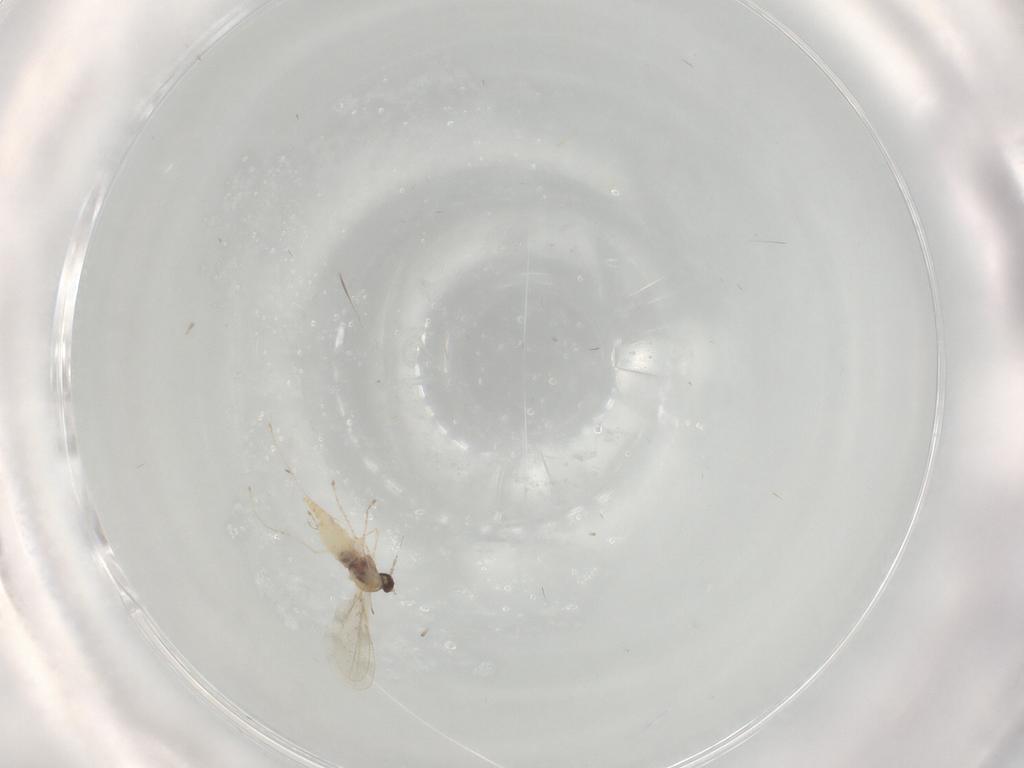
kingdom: Animalia
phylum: Arthropoda
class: Insecta
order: Diptera
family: Cecidomyiidae
